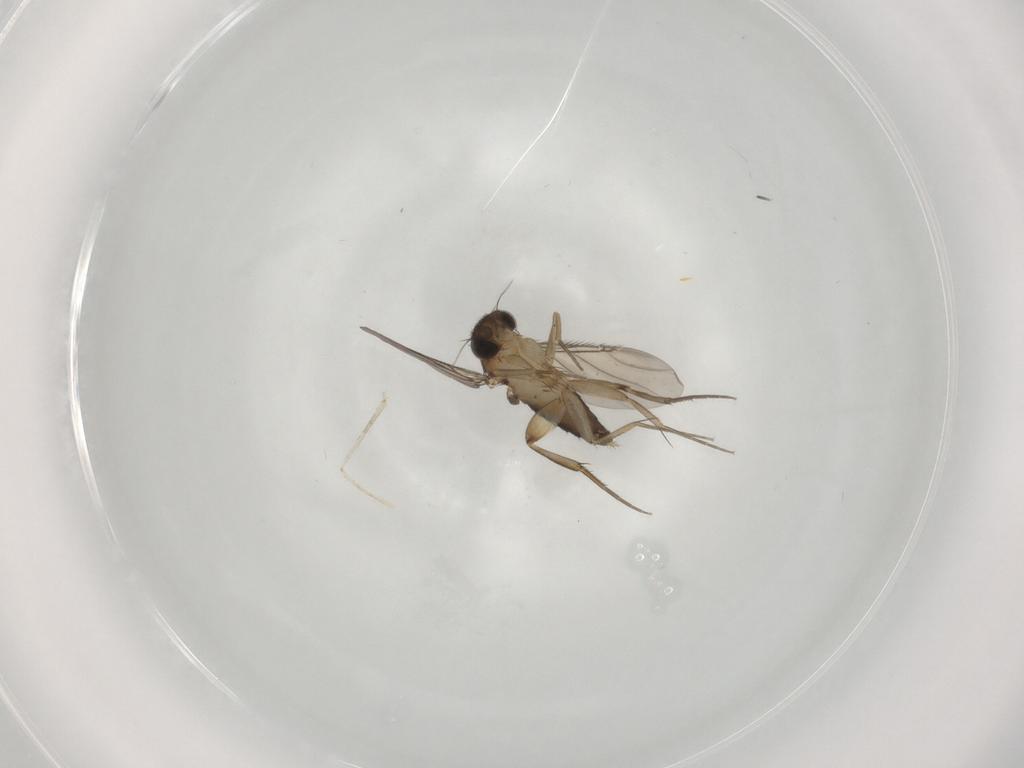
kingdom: Animalia
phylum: Arthropoda
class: Insecta
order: Diptera
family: Phoridae
